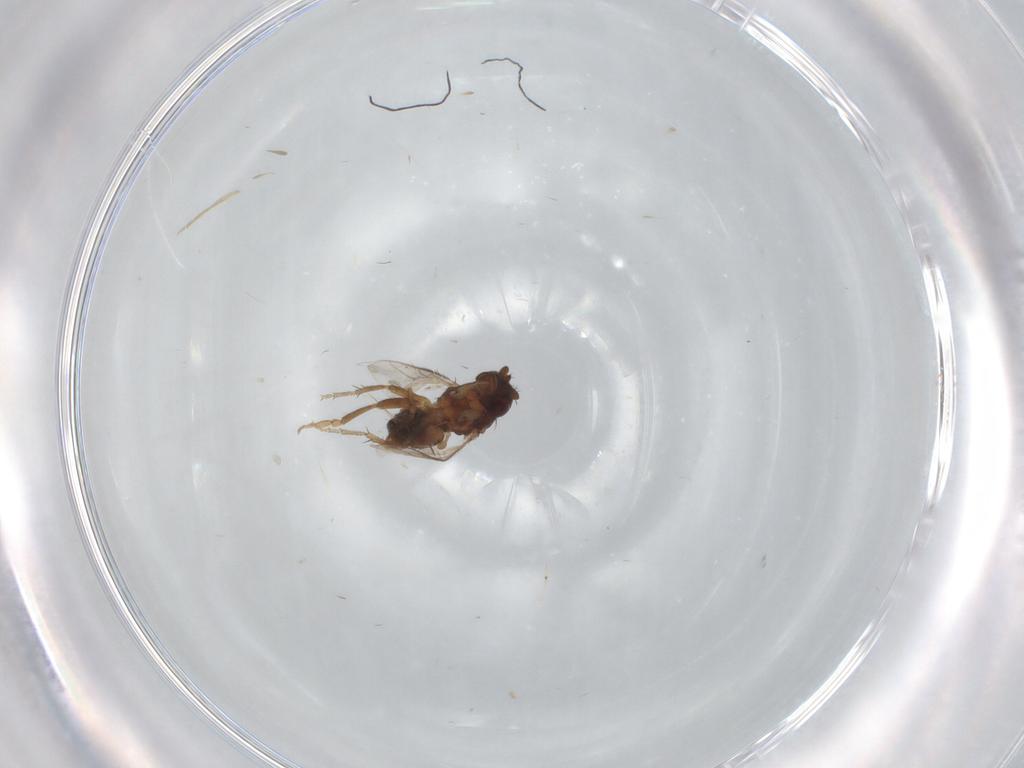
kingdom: Animalia
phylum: Arthropoda
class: Insecta
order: Diptera
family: Sphaeroceridae
